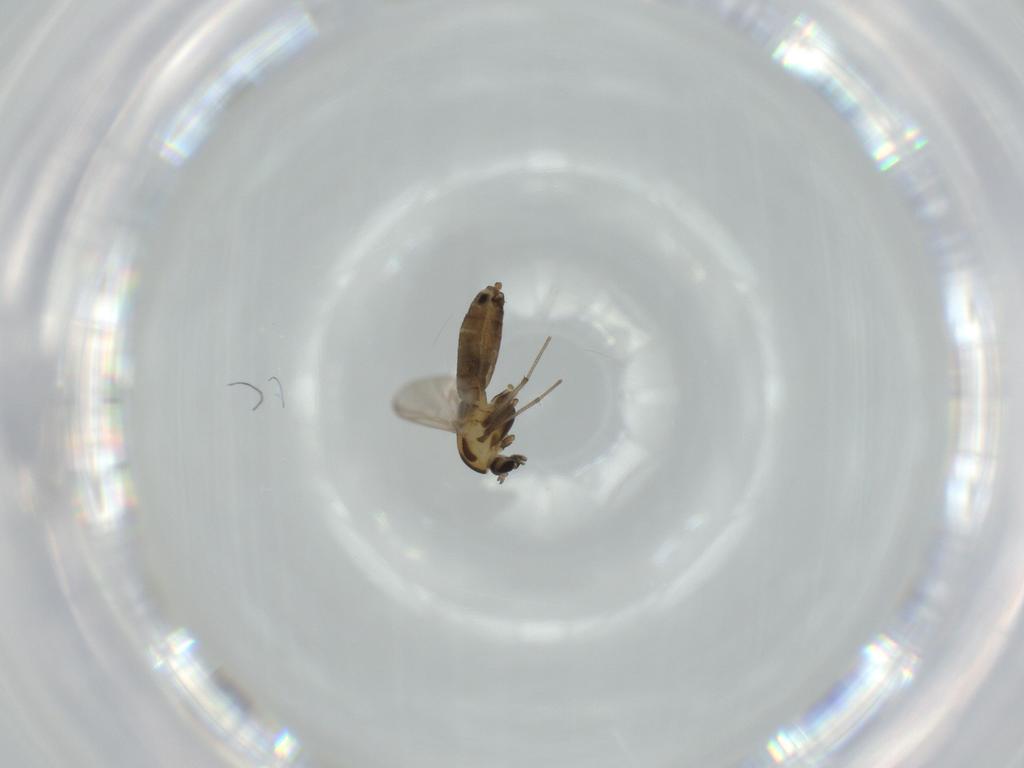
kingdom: Animalia
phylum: Arthropoda
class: Insecta
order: Diptera
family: Chironomidae
